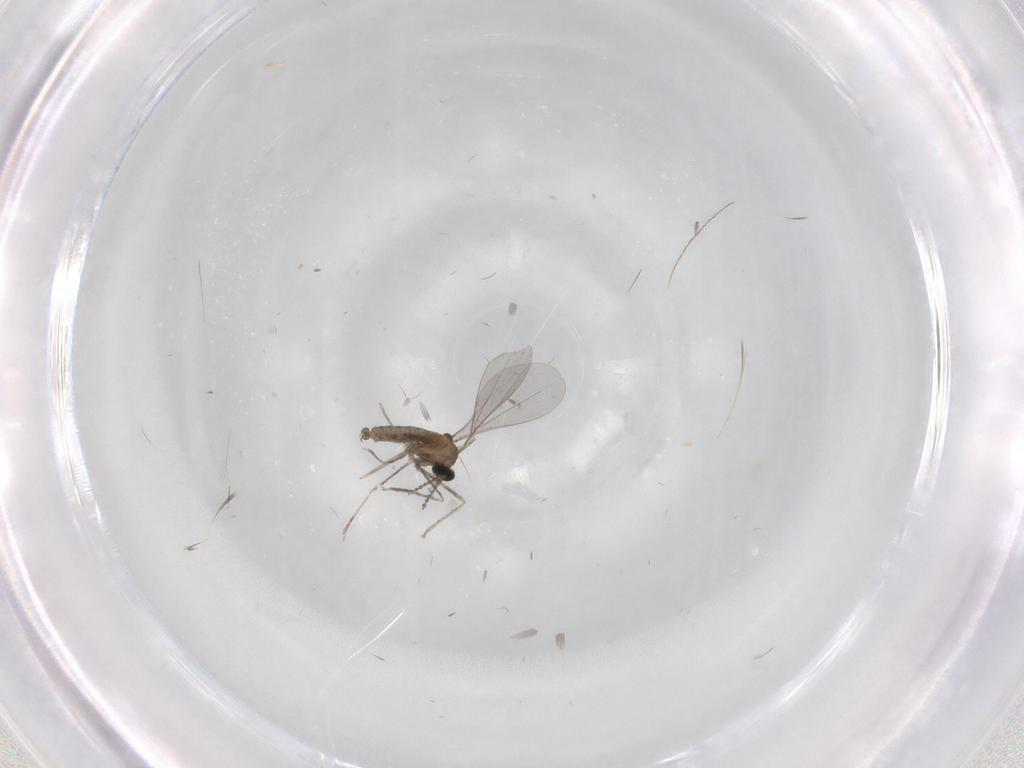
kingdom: Animalia
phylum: Arthropoda
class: Insecta
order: Diptera
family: Cecidomyiidae
